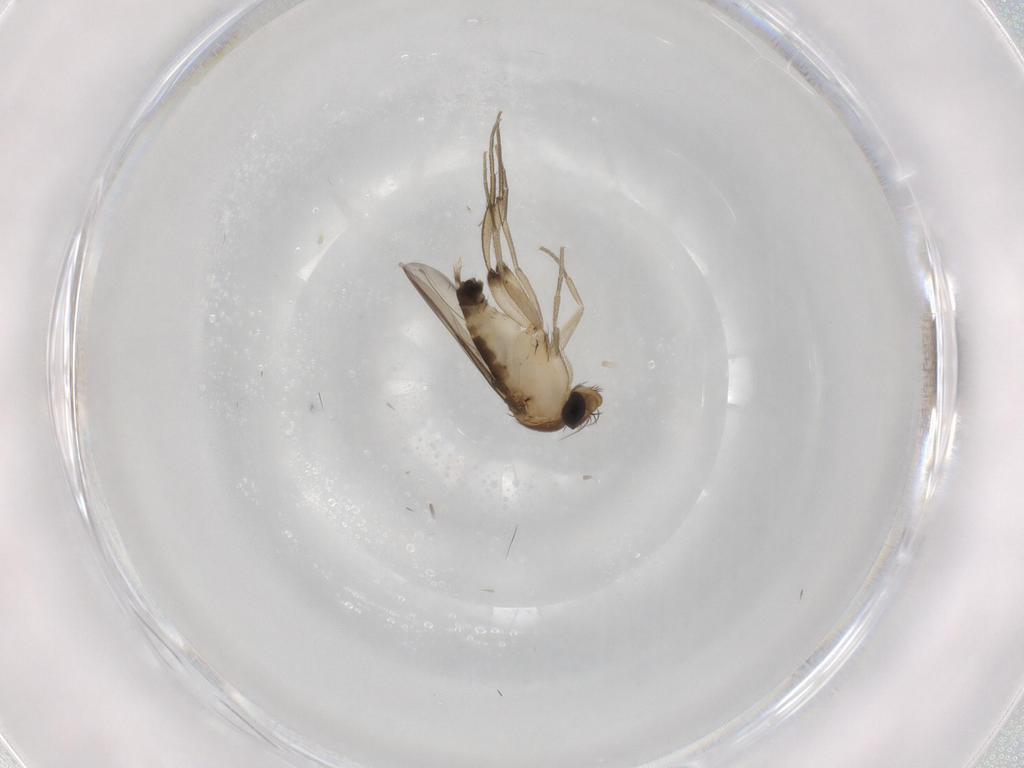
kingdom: Animalia
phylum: Arthropoda
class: Insecta
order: Diptera
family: Phoridae
